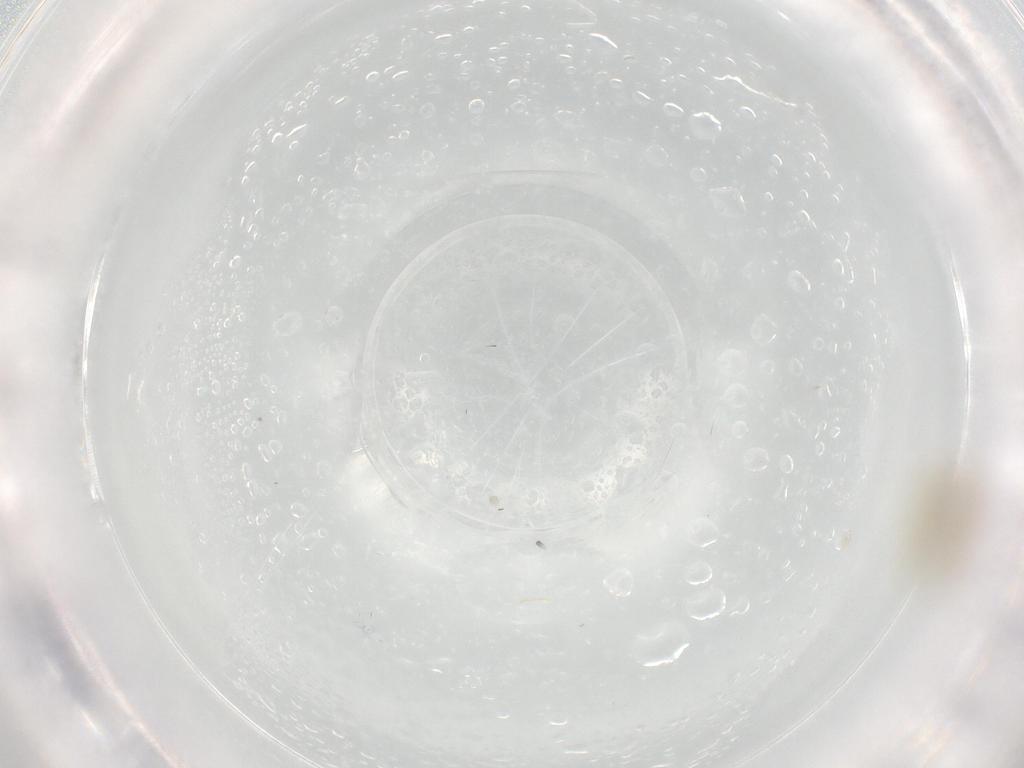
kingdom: Animalia
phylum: Arthropoda
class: Insecta
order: Psocodea
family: Caeciliusidae
